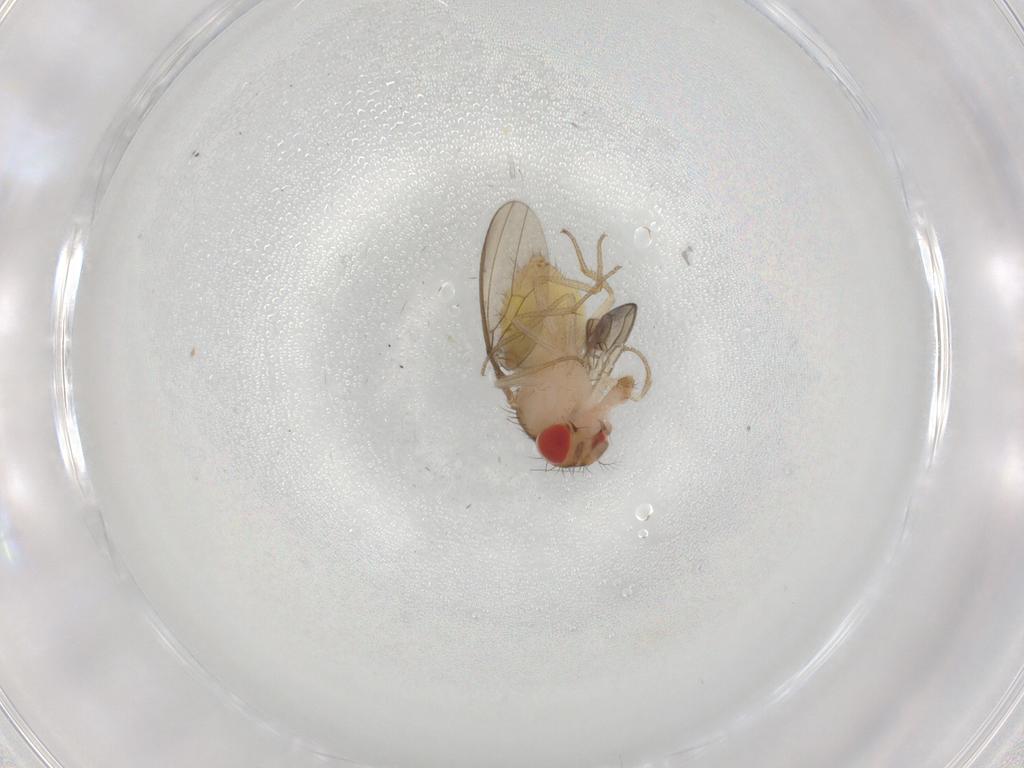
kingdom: Animalia
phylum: Arthropoda
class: Insecta
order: Diptera
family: Drosophilidae
